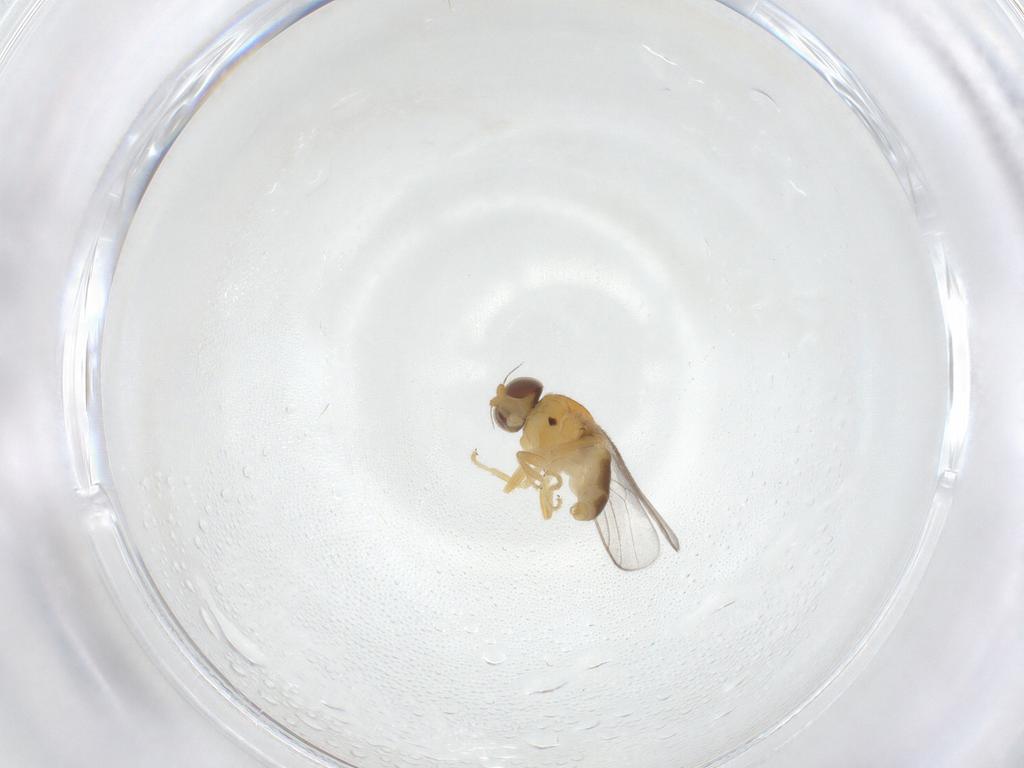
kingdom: Animalia
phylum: Arthropoda
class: Insecta
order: Diptera
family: Chloropidae
